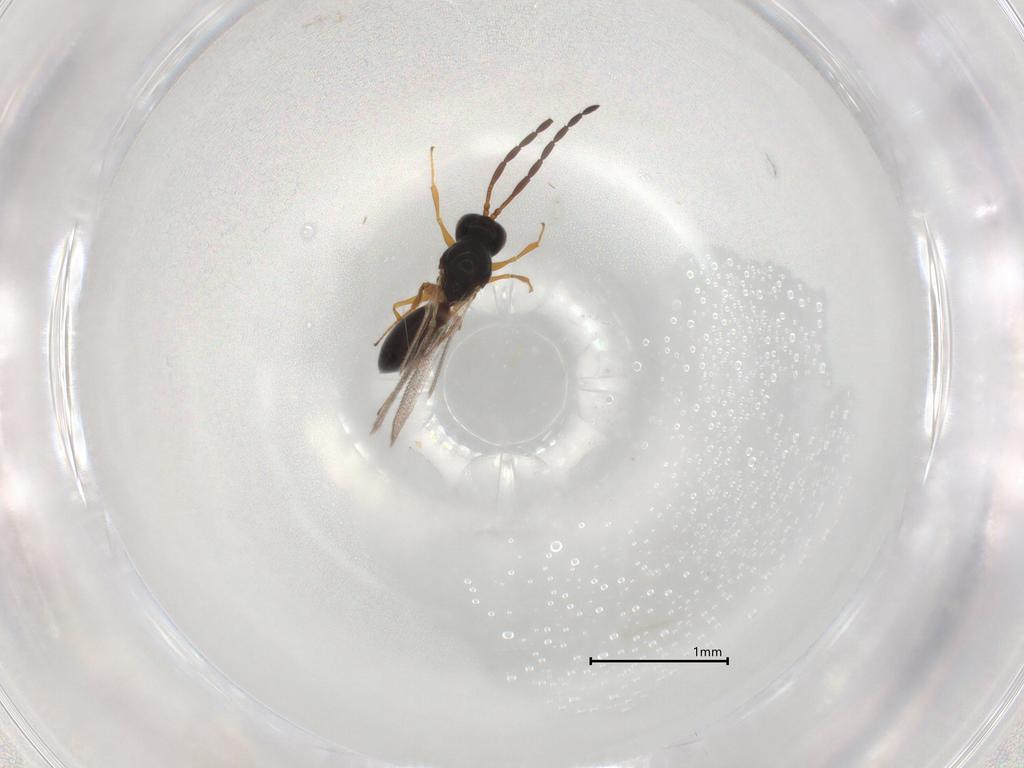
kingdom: Animalia
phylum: Arthropoda
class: Insecta
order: Hymenoptera
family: Figitidae
